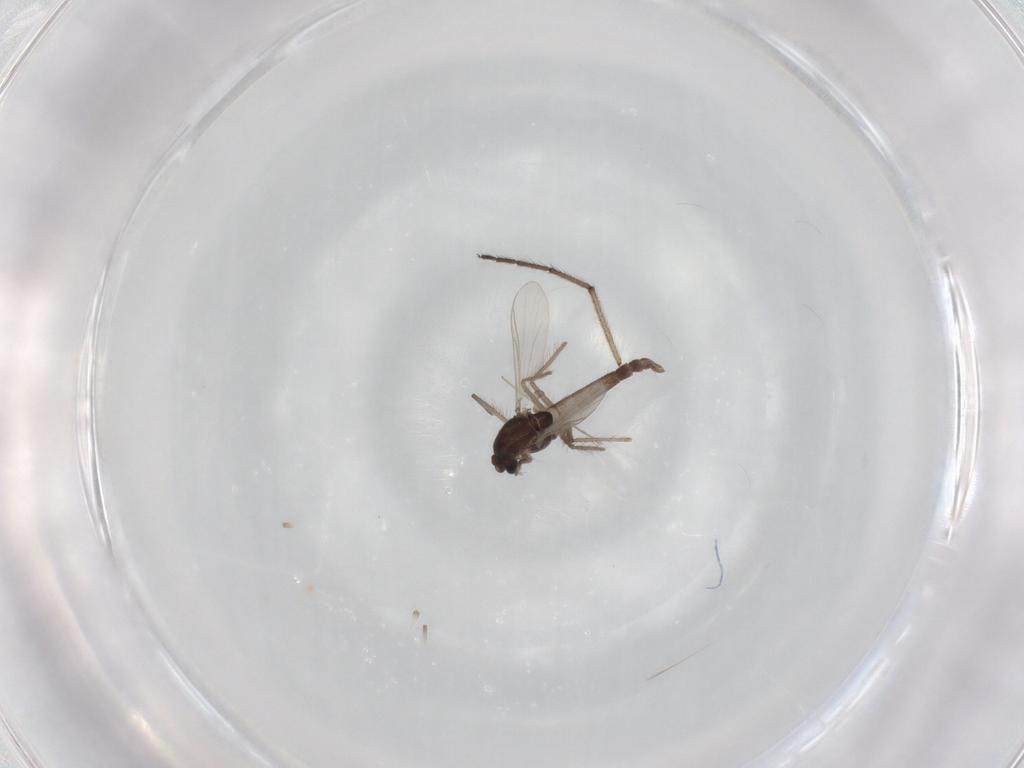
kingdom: Animalia
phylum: Arthropoda
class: Insecta
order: Diptera
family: Chironomidae
